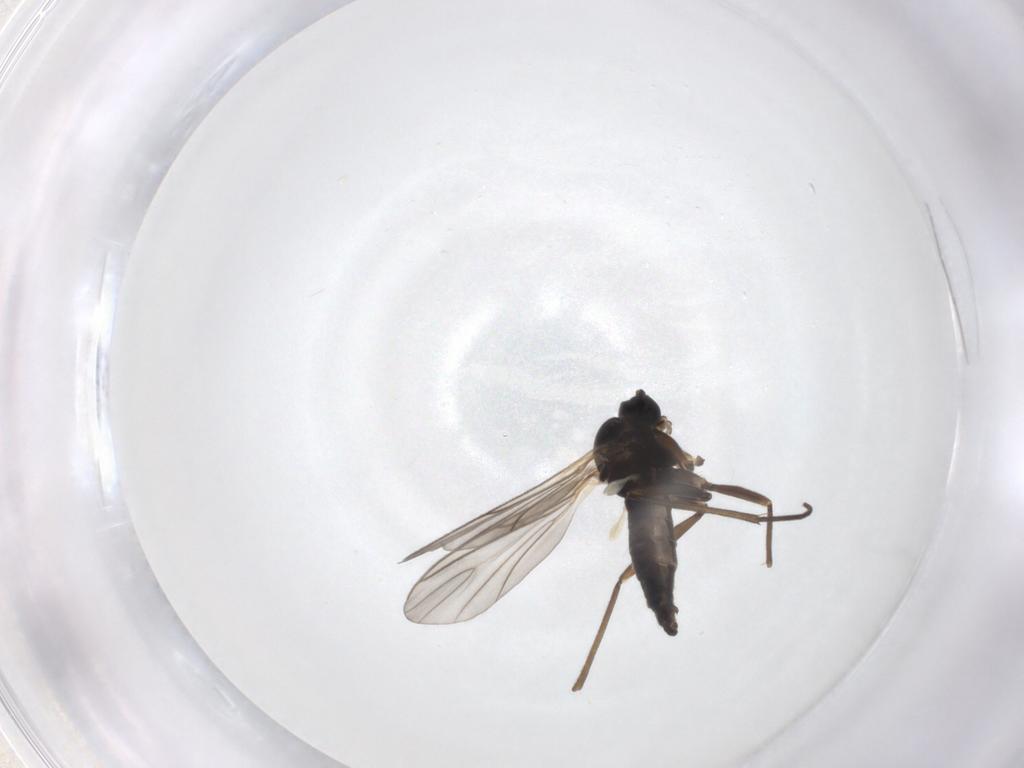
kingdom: Animalia
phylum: Arthropoda
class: Insecta
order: Diptera
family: Sciaridae
